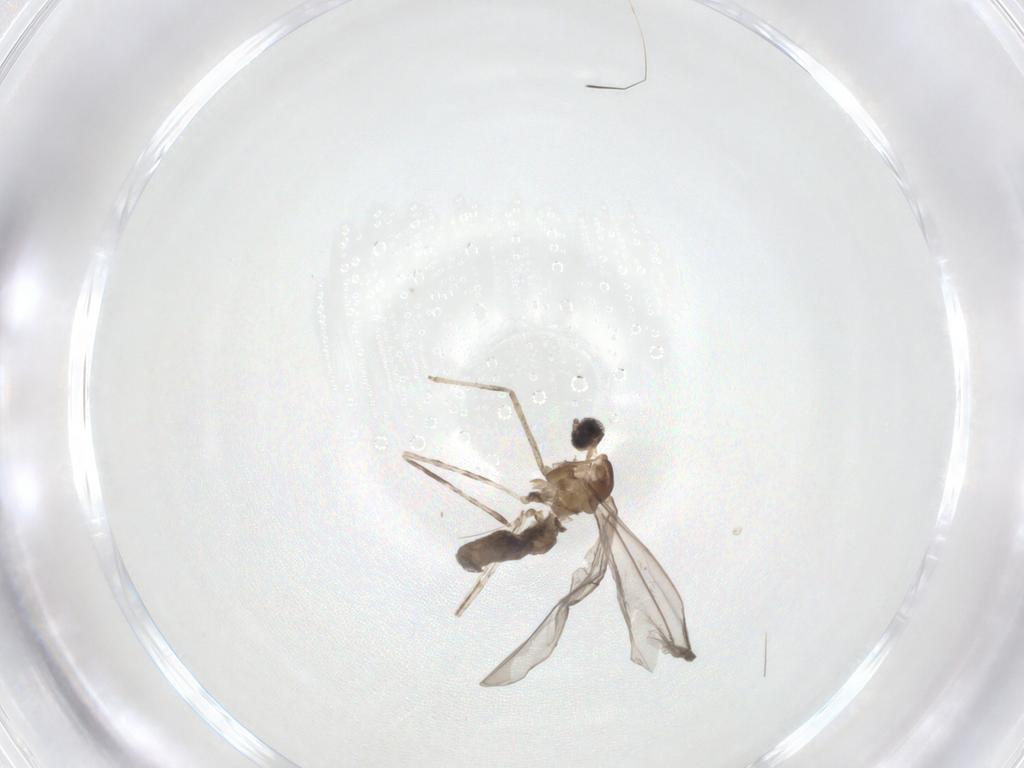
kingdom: Animalia
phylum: Arthropoda
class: Insecta
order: Diptera
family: Cecidomyiidae
